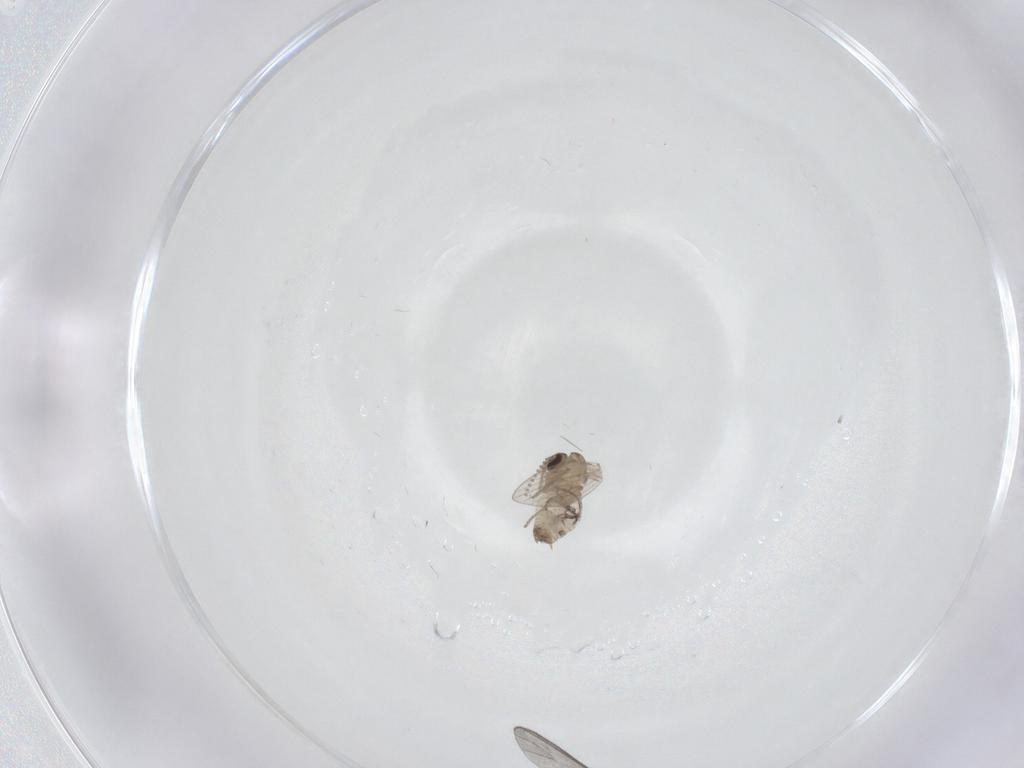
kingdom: Animalia
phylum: Arthropoda
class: Insecta
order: Diptera
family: Psychodidae
